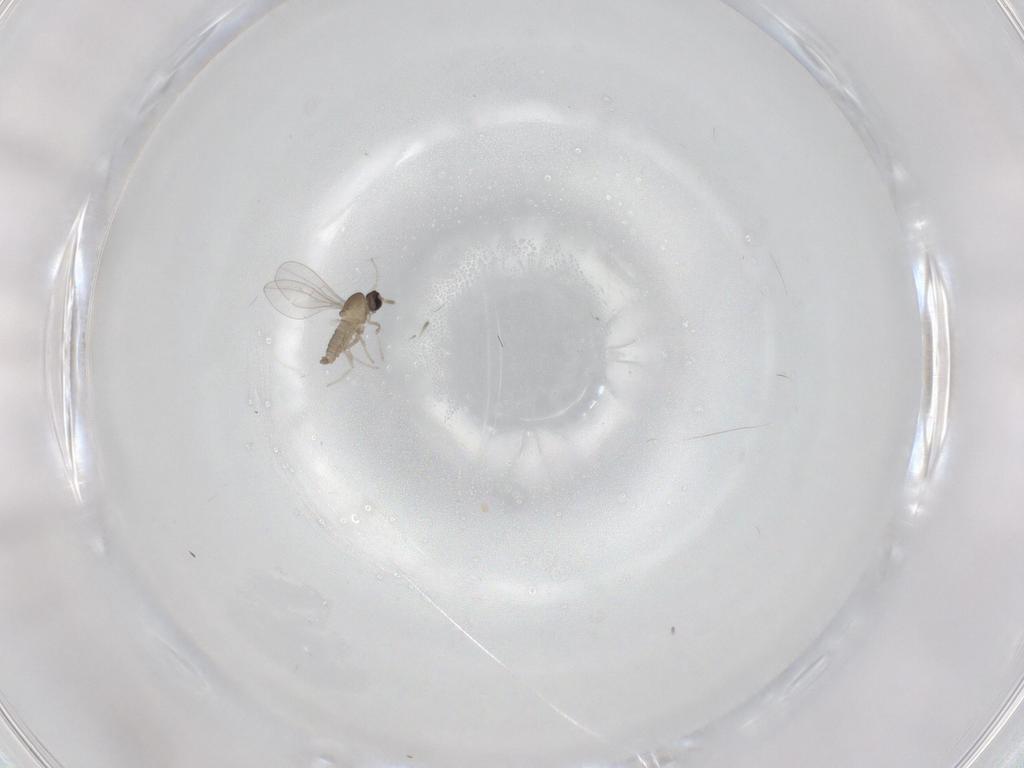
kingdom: Animalia
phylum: Arthropoda
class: Insecta
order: Diptera
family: Cecidomyiidae
